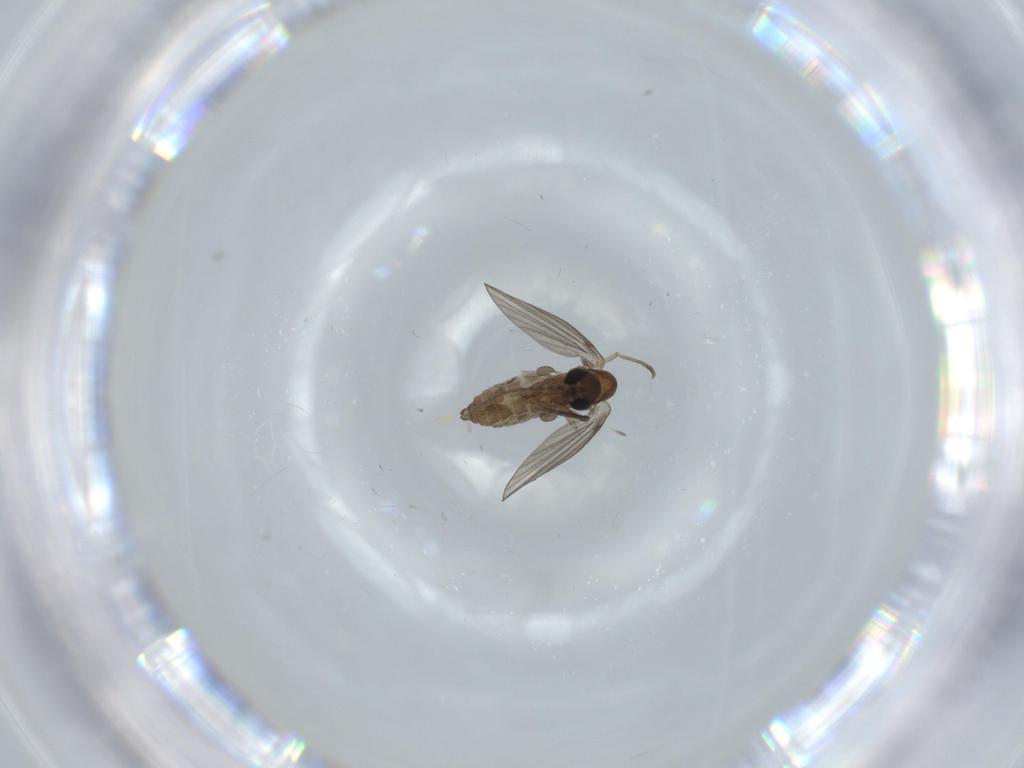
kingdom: Animalia
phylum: Arthropoda
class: Insecta
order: Diptera
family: Psychodidae
